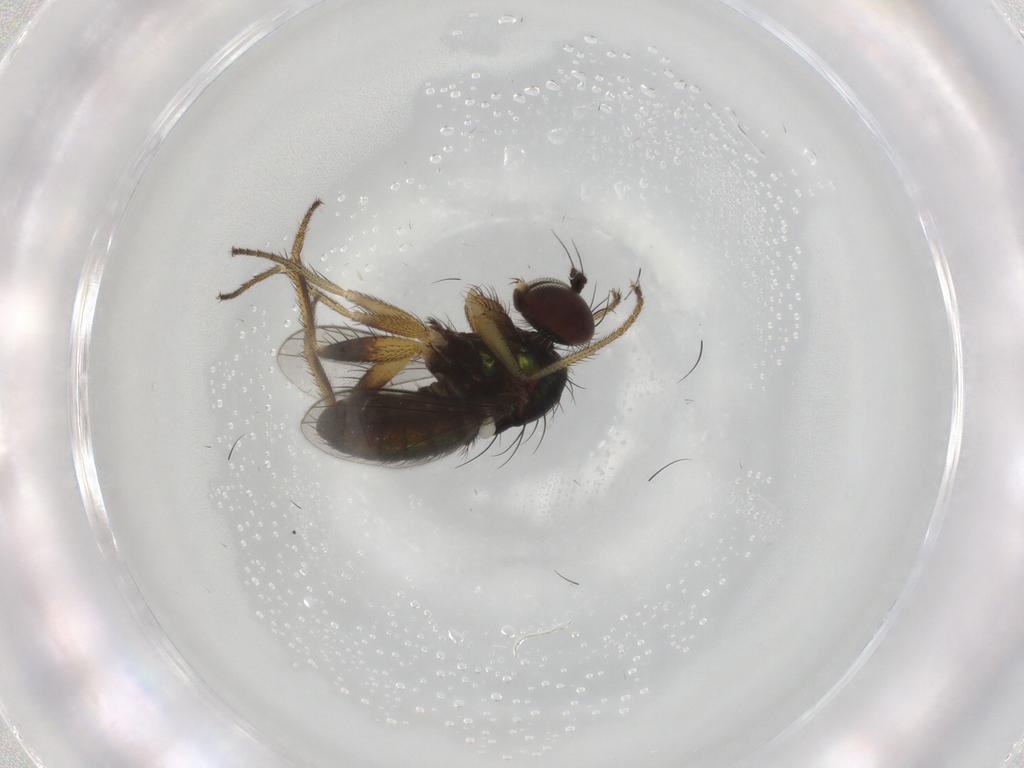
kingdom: Animalia
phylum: Arthropoda
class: Insecta
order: Diptera
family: Dolichopodidae
